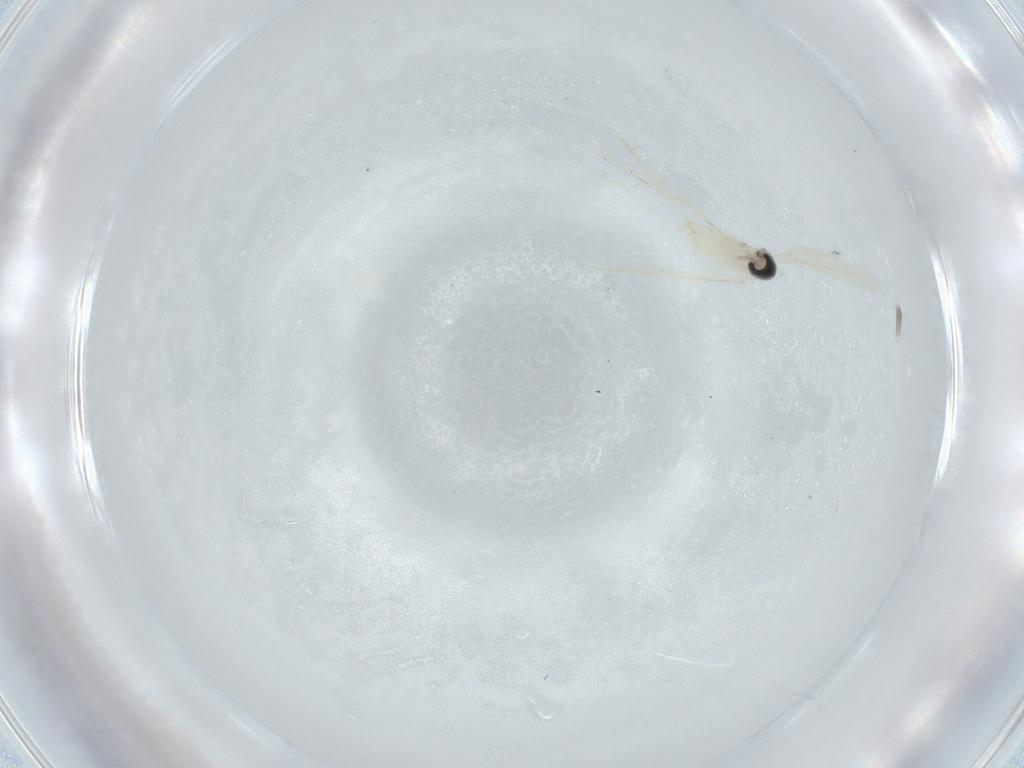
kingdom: Animalia
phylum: Arthropoda
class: Insecta
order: Diptera
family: Cecidomyiidae
